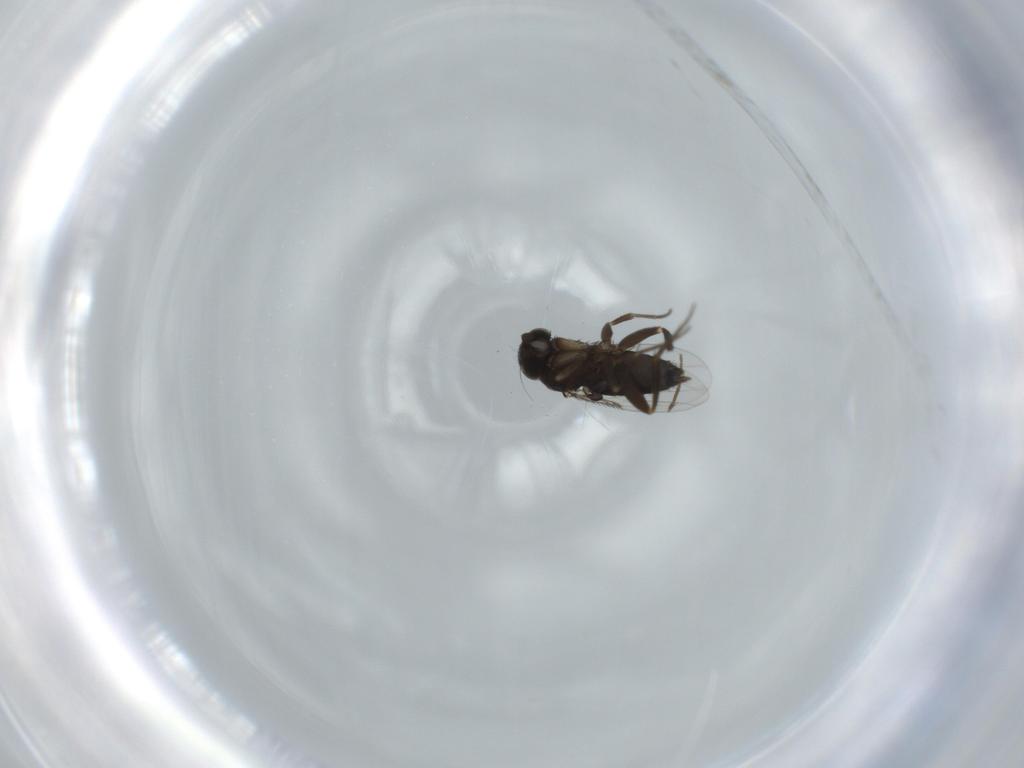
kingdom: Animalia
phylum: Arthropoda
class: Insecta
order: Diptera
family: Phoridae
